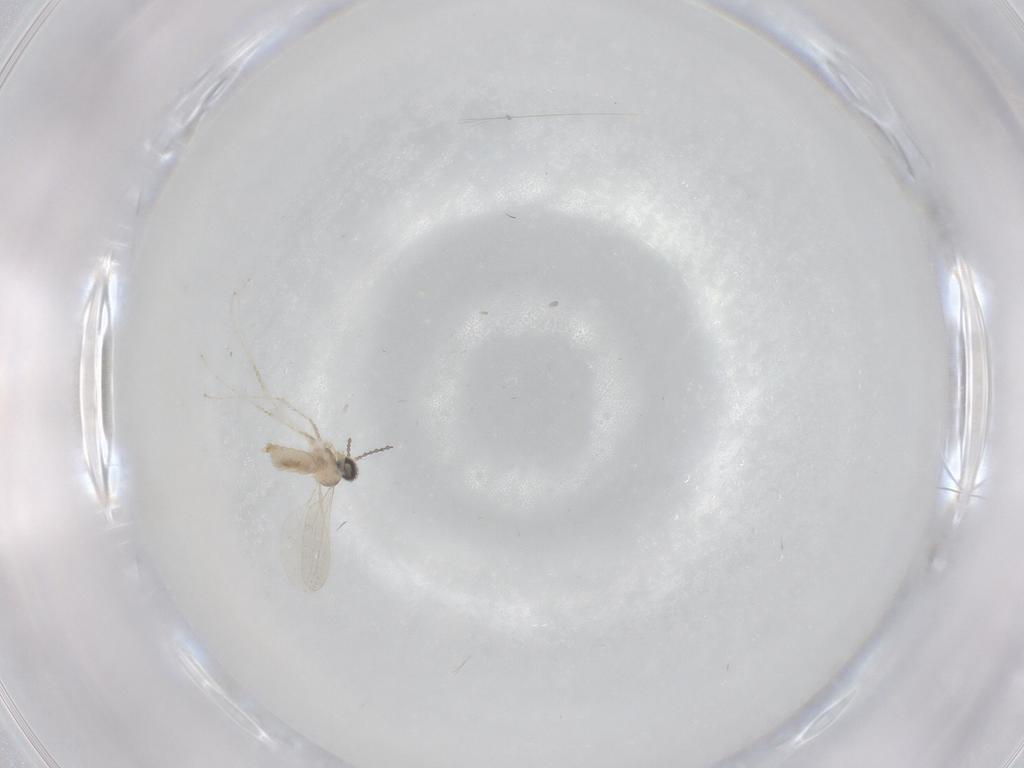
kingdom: Animalia
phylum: Arthropoda
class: Insecta
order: Diptera
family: Cecidomyiidae
